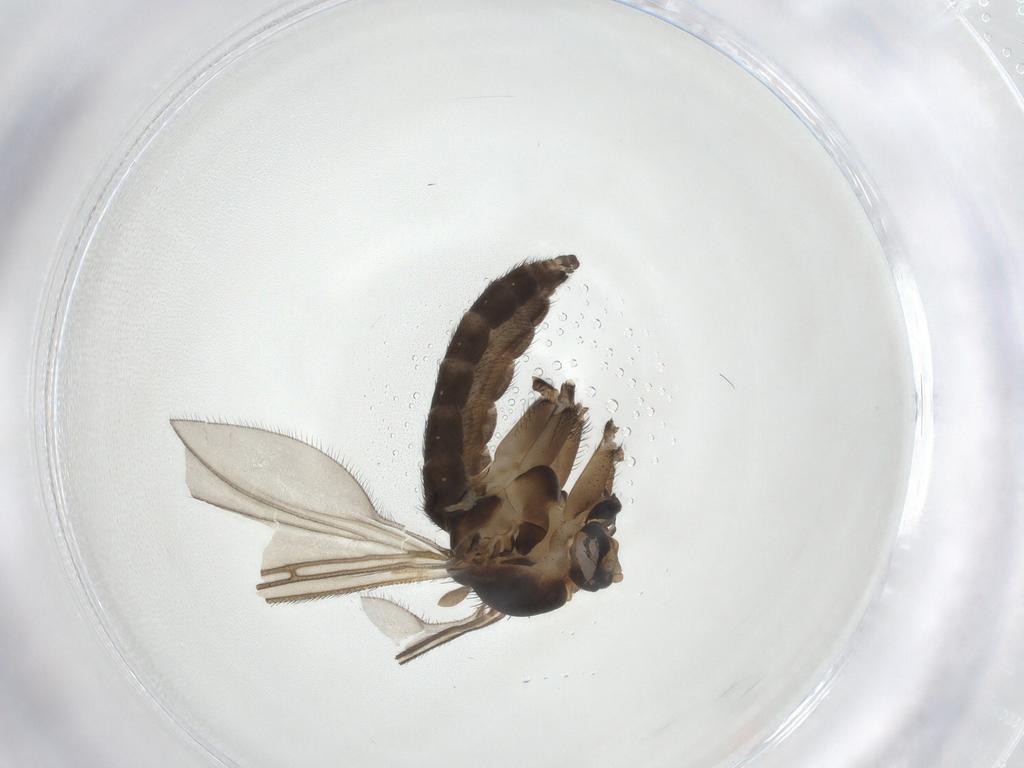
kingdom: Animalia
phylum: Arthropoda
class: Insecta
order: Diptera
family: Sciaridae
